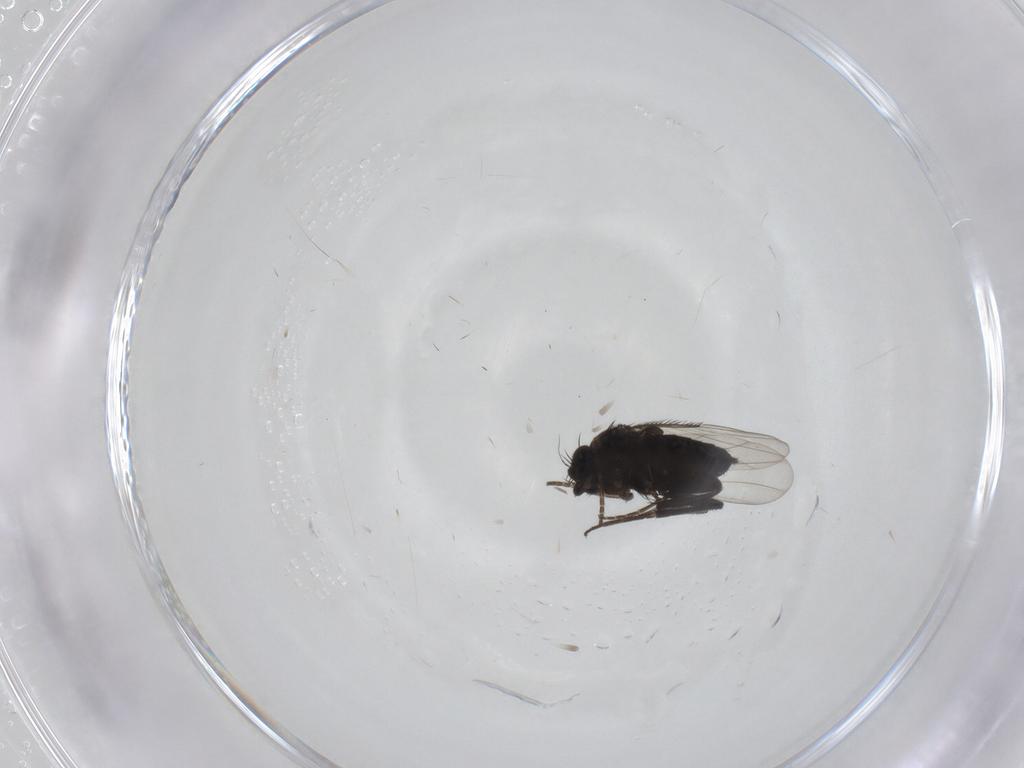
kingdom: Animalia
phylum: Arthropoda
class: Insecta
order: Diptera
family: Phoridae
